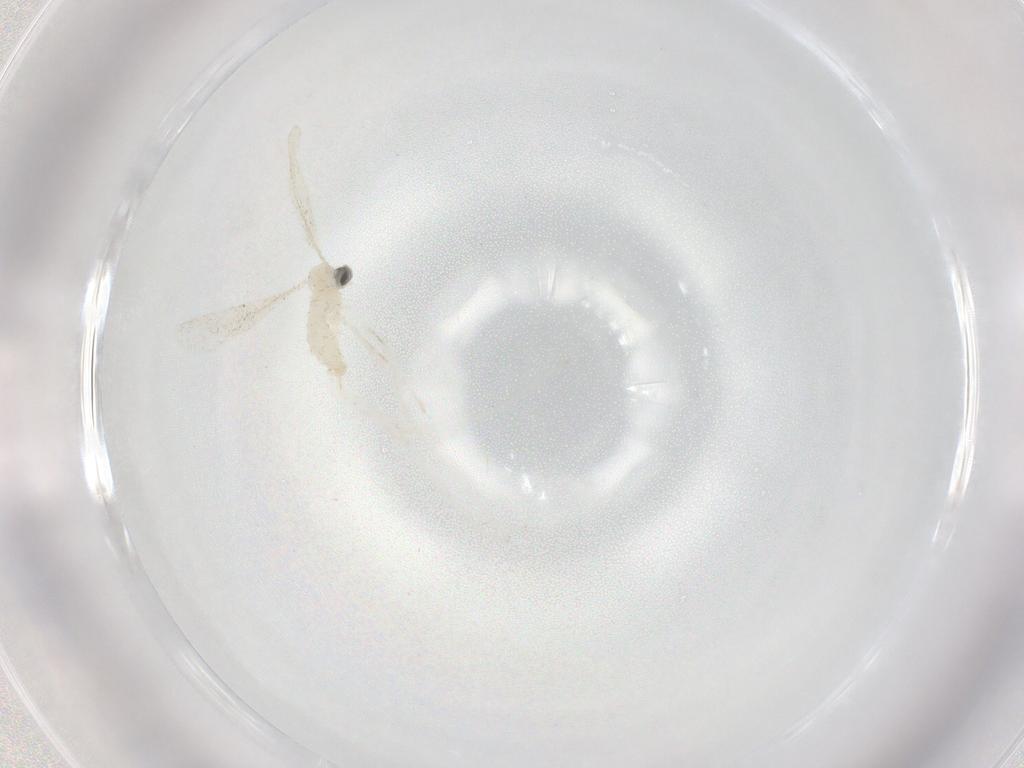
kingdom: Animalia
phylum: Arthropoda
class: Insecta
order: Diptera
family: Cecidomyiidae
